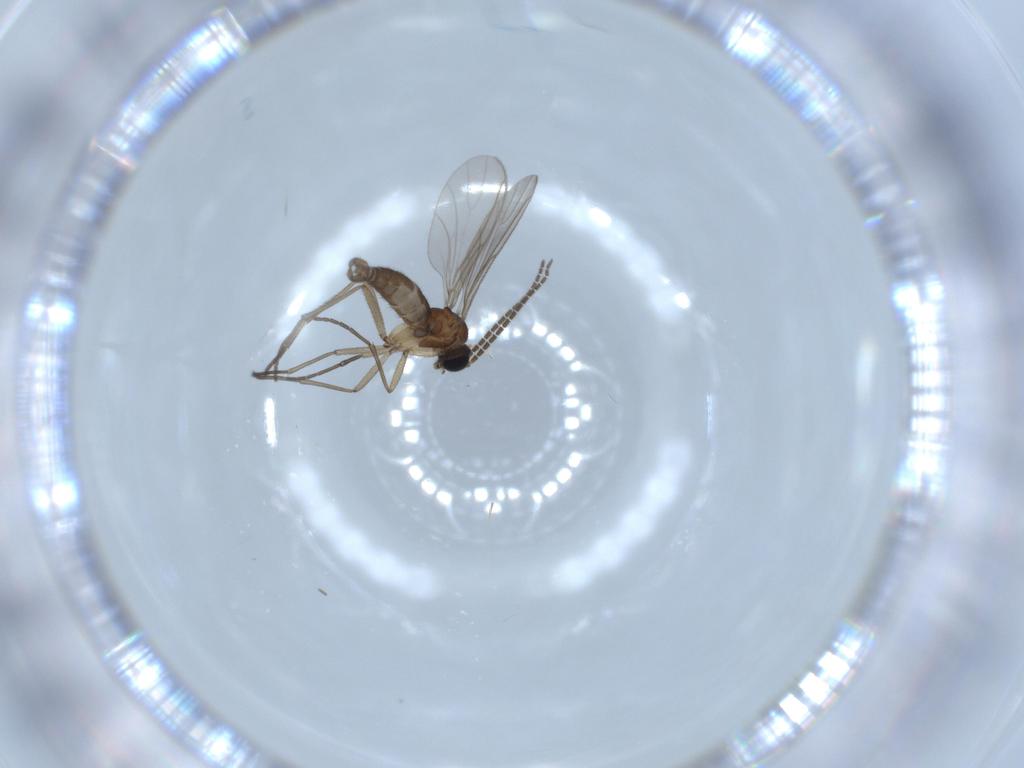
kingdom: Animalia
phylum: Arthropoda
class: Insecta
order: Diptera
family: Sciaridae
